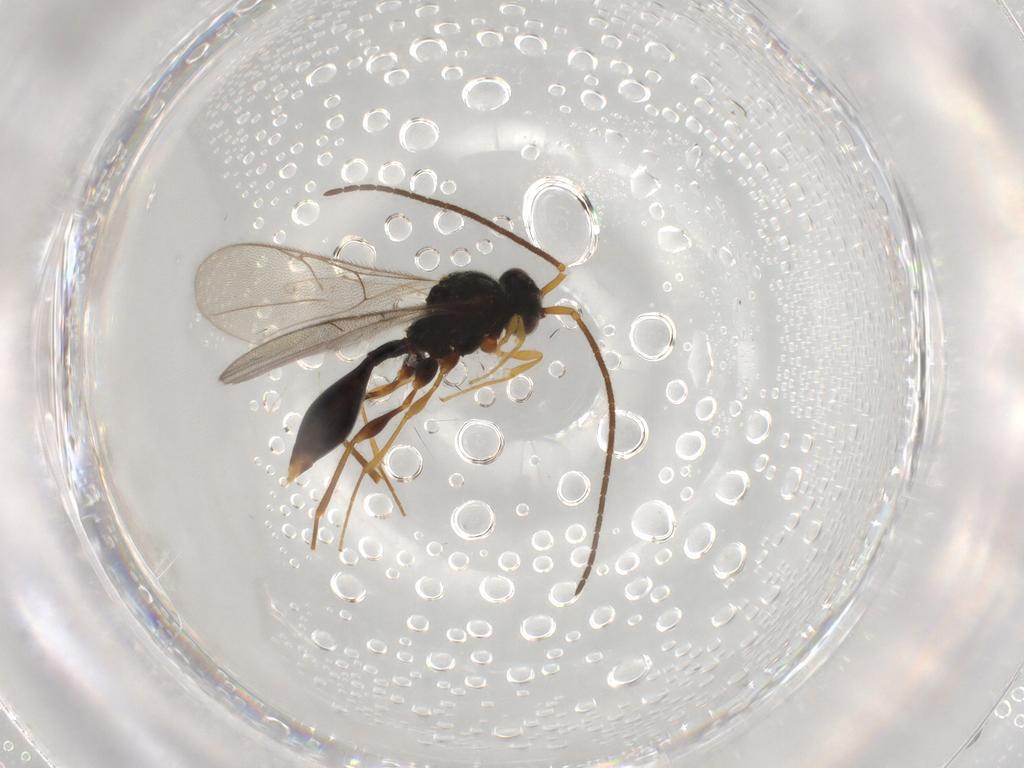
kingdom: Animalia
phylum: Arthropoda
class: Insecta
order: Hymenoptera
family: Diapriidae
